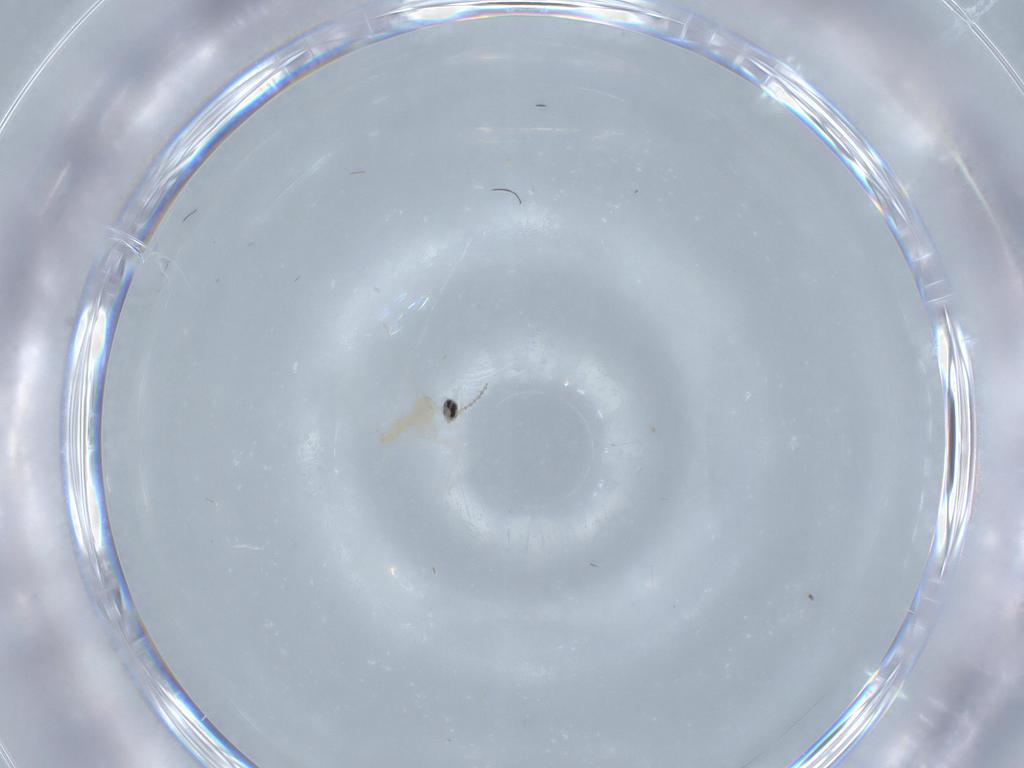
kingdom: Animalia
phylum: Arthropoda
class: Insecta
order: Diptera
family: Cecidomyiidae
